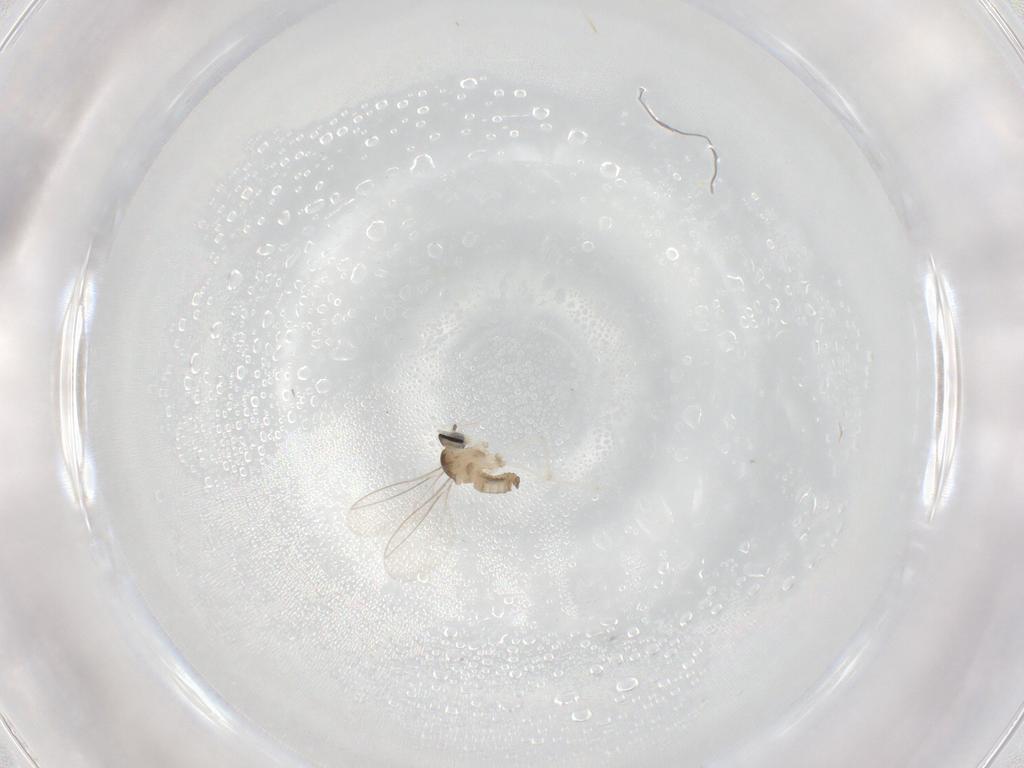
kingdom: Animalia
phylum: Arthropoda
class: Insecta
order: Diptera
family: Cecidomyiidae
